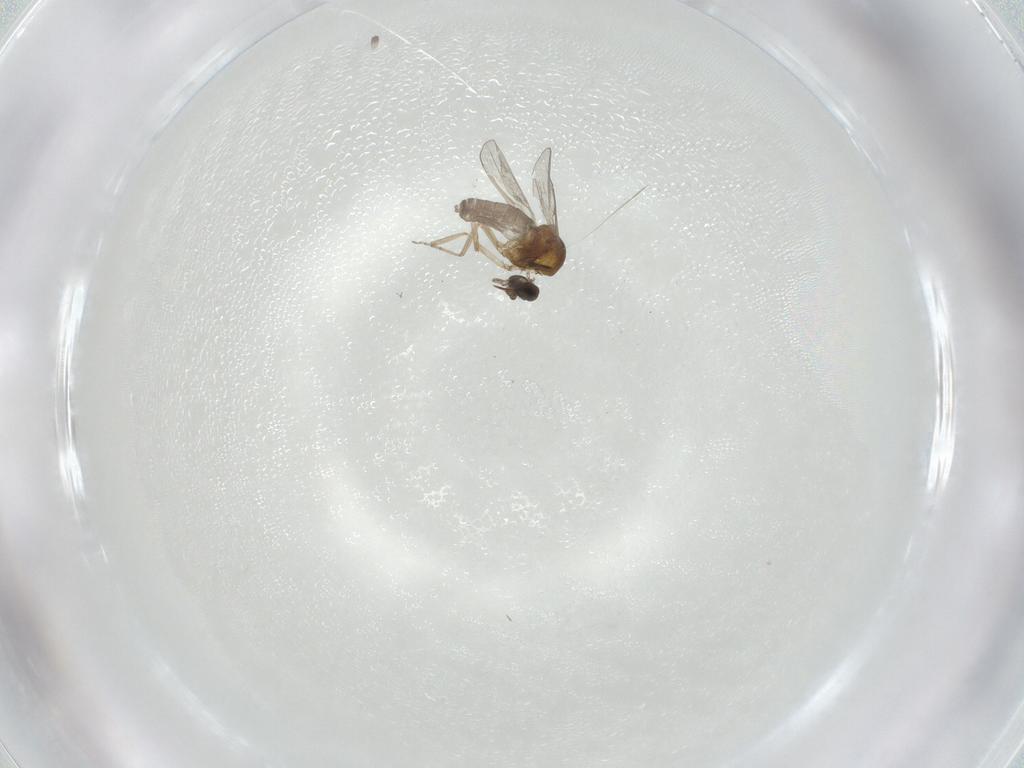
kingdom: Animalia
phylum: Arthropoda
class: Insecta
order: Diptera
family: Cecidomyiidae
